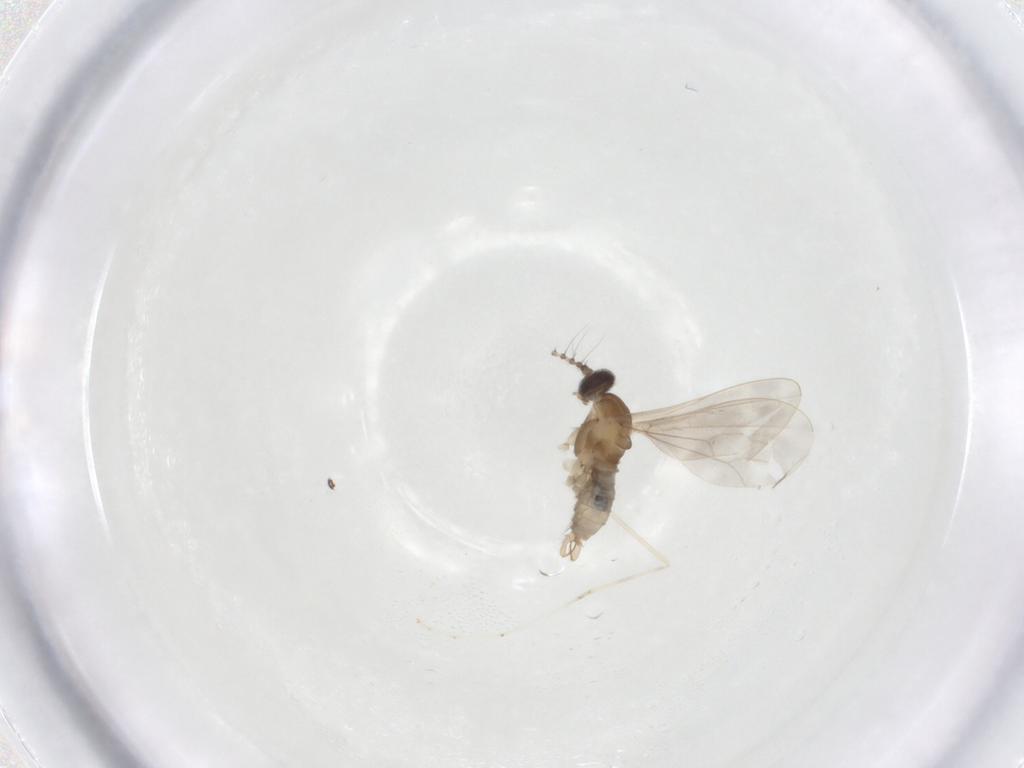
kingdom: Animalia
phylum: Arthropoda
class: Insecta
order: Diptera
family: Cecidomyiidae
